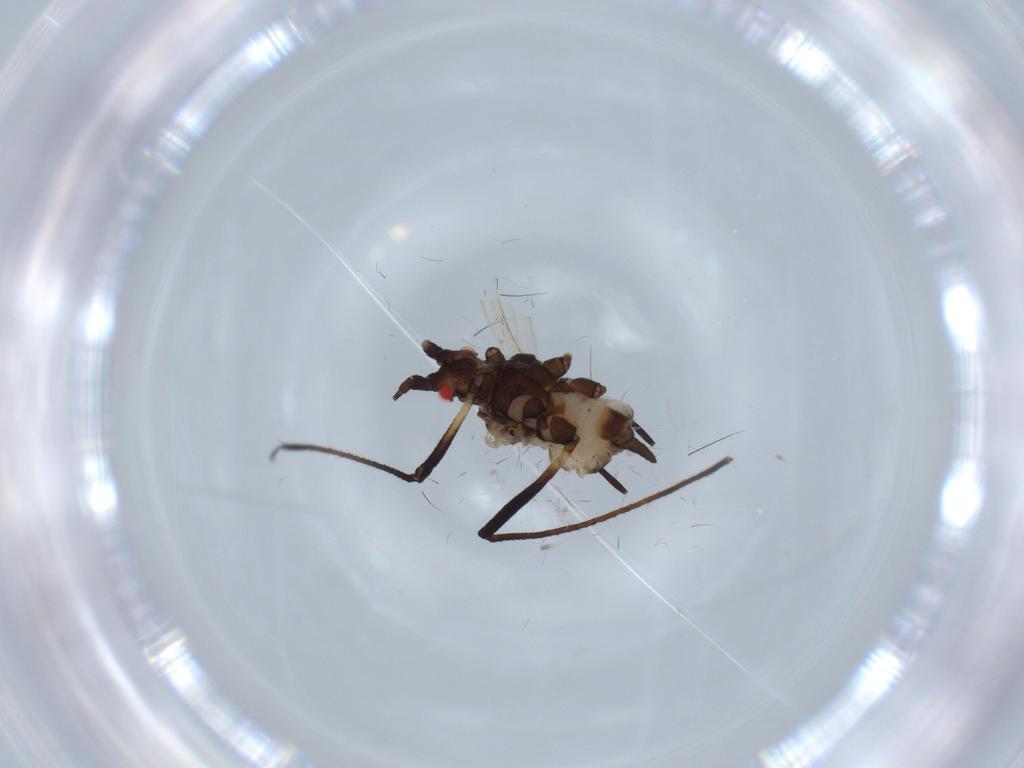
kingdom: Animalia
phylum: Arthropoda
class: Insecta
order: Hemiptera
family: Aphididae
